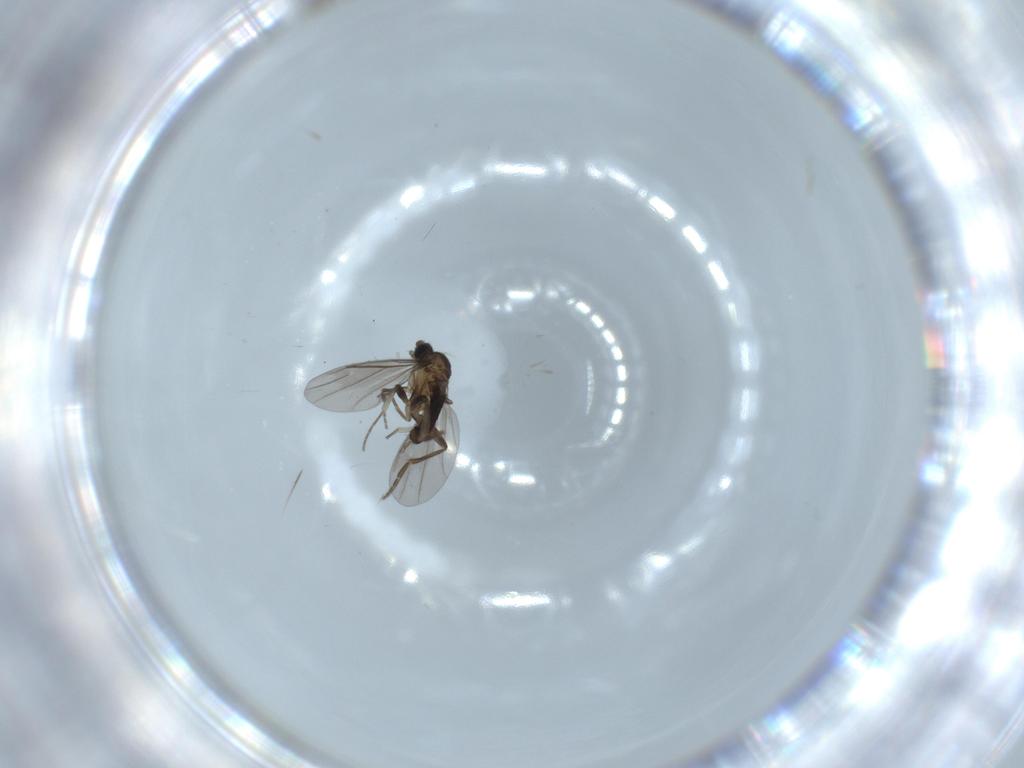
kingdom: Animalia
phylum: Arthropoda
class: Insecta
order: Diptera
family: Phoridae
